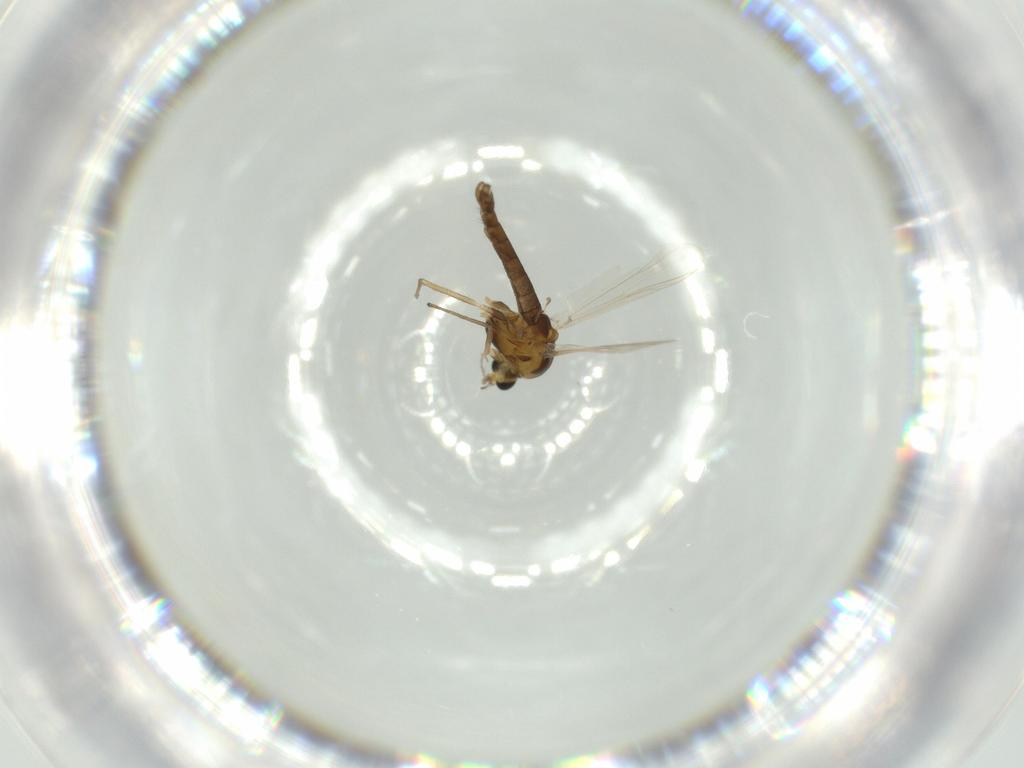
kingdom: Animalia
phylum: Arthropoda
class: Insecta
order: Diptera
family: Chironomidae
